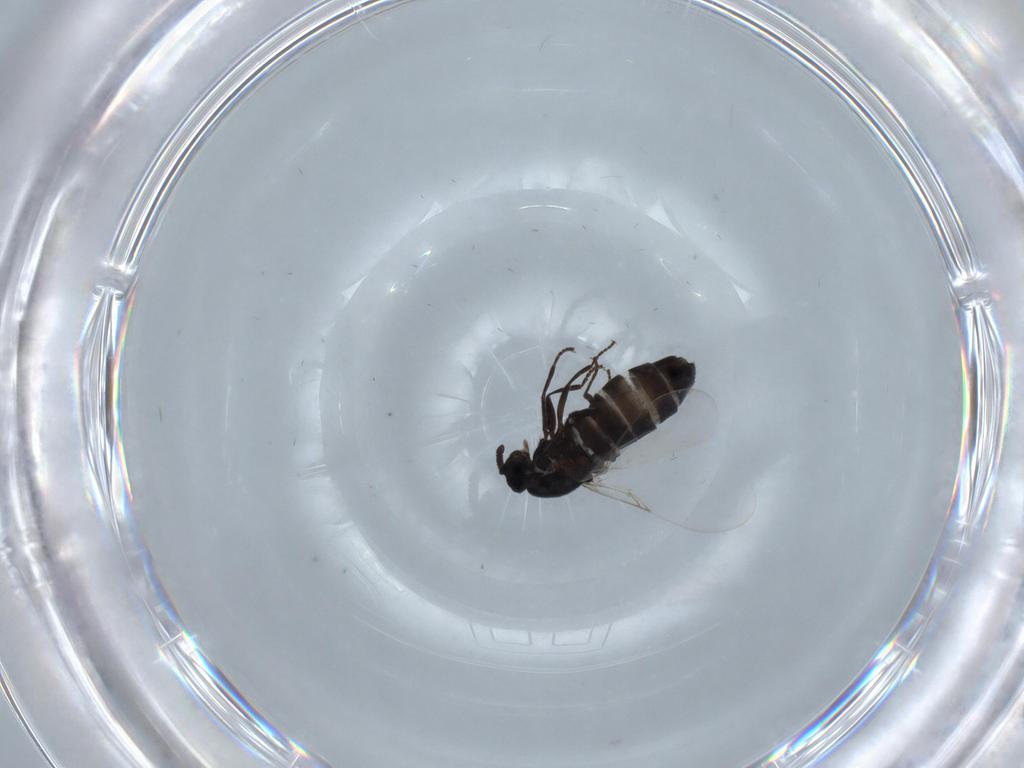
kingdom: Animalia
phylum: Arthropoda
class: Insecta
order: Diptera
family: Scatopsidae
